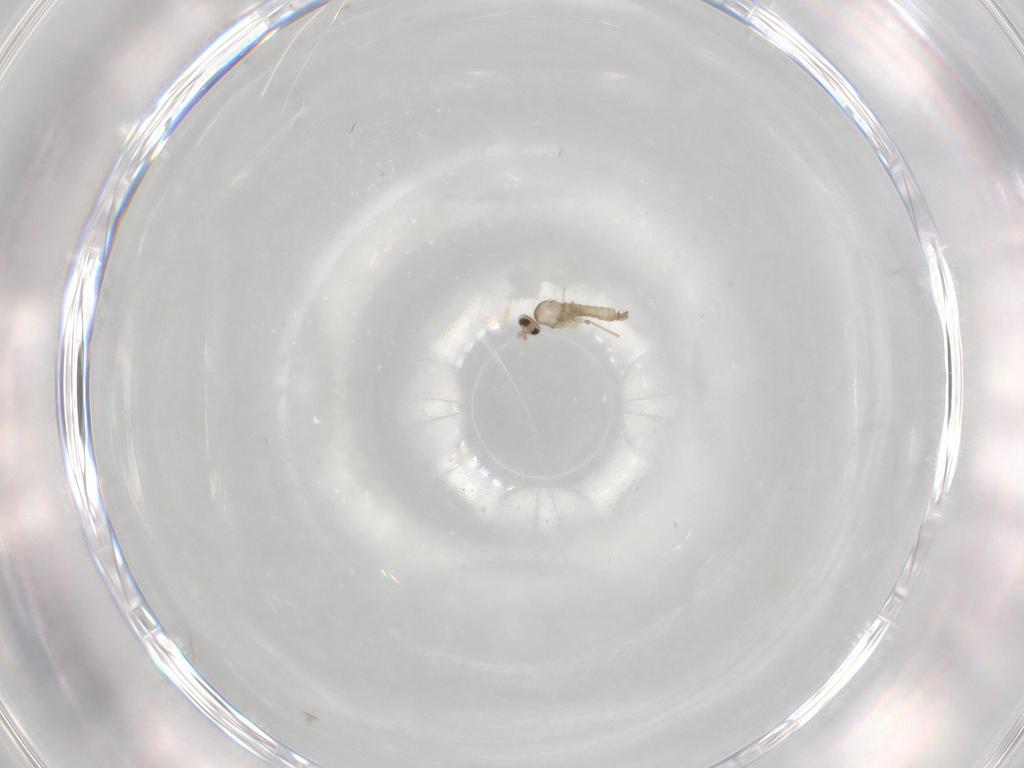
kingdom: Animalia
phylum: Arthropoda
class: Insecta
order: Diptera
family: Cecidomyiidae
